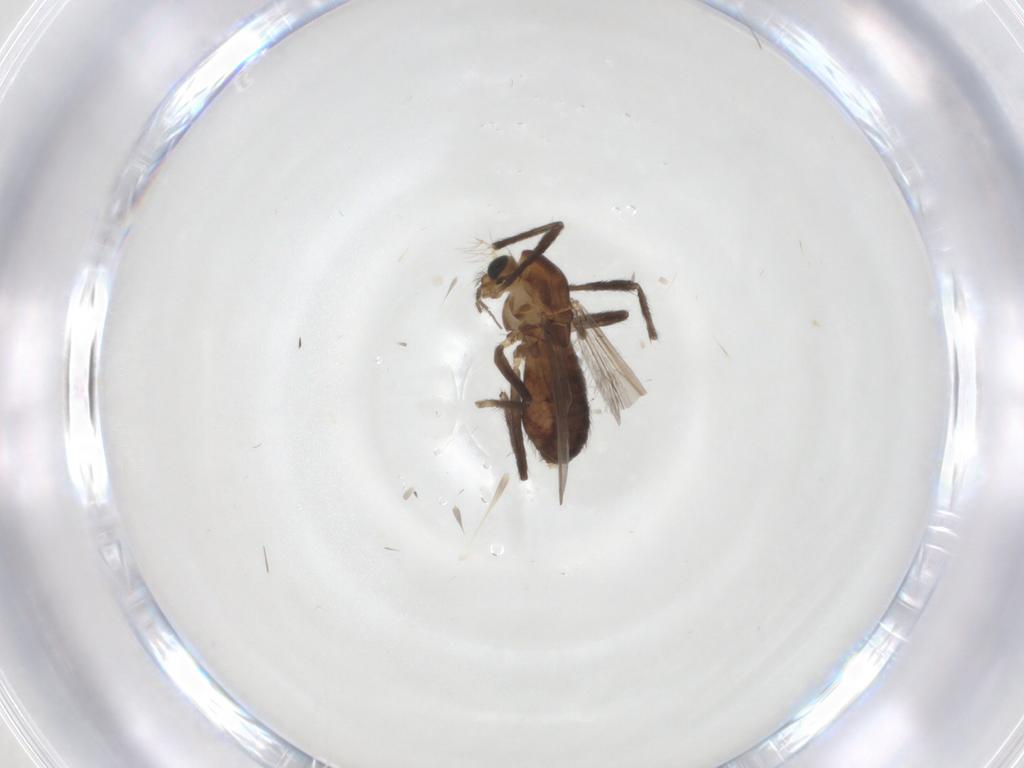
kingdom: Animalia
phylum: Arthropoda
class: Insecta
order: Diptera
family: Chironomidae
